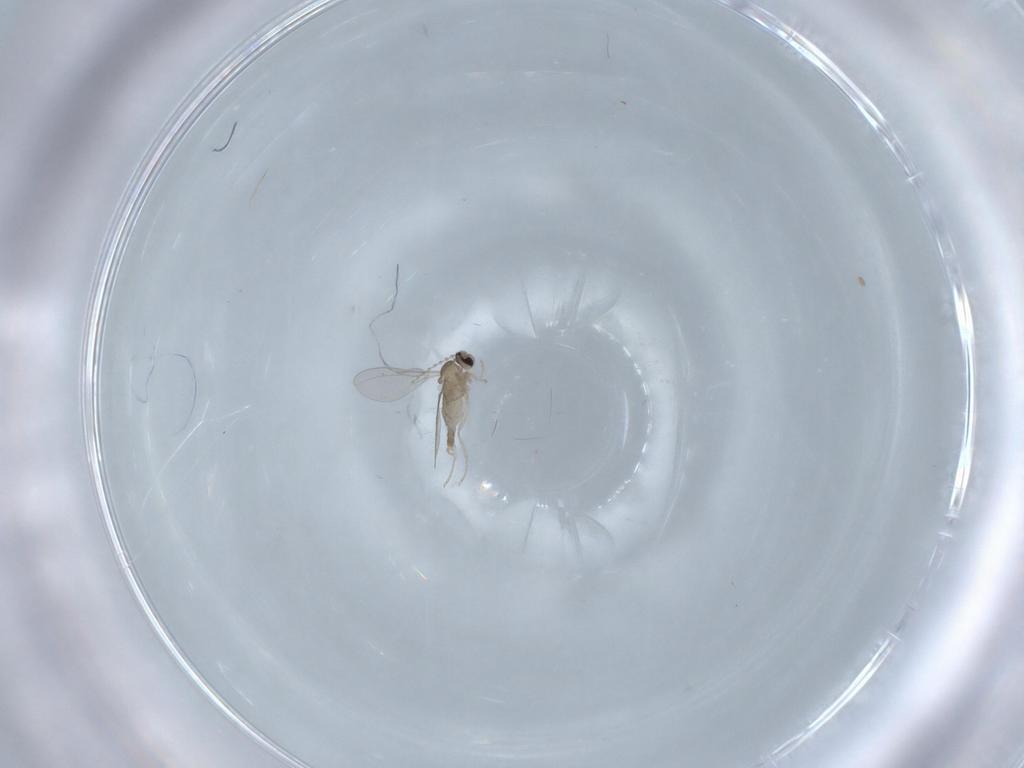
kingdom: Animalia
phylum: Arthropoda
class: Insecta
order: Diptera
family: Cecidomyiidae
